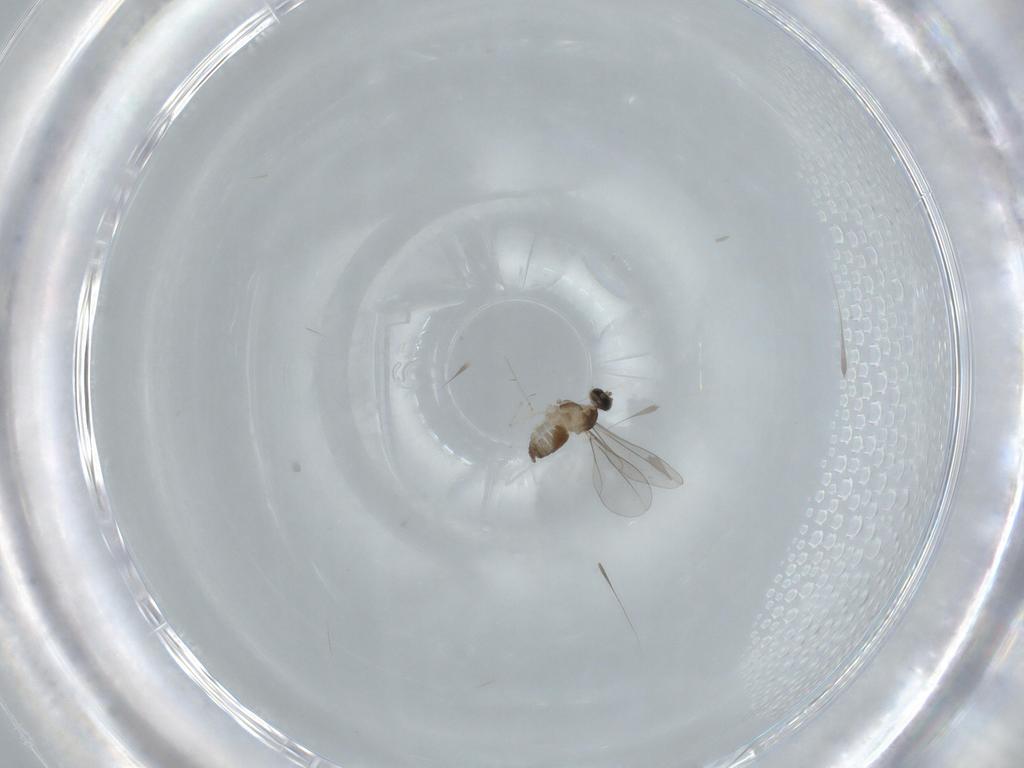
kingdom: Animalia
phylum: Arthropoda
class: Insecta
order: Diptera
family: Cecidomyiidae
